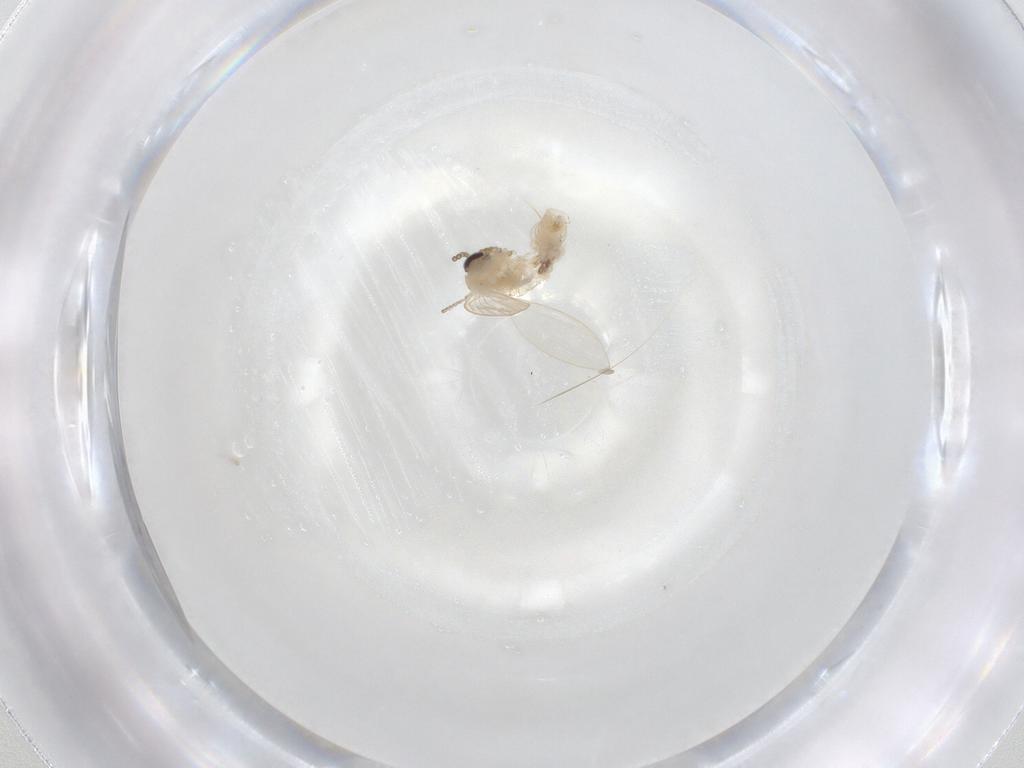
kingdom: Animalia
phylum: Arthropoda
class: Insecta
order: Diptera
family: Psychodidae
